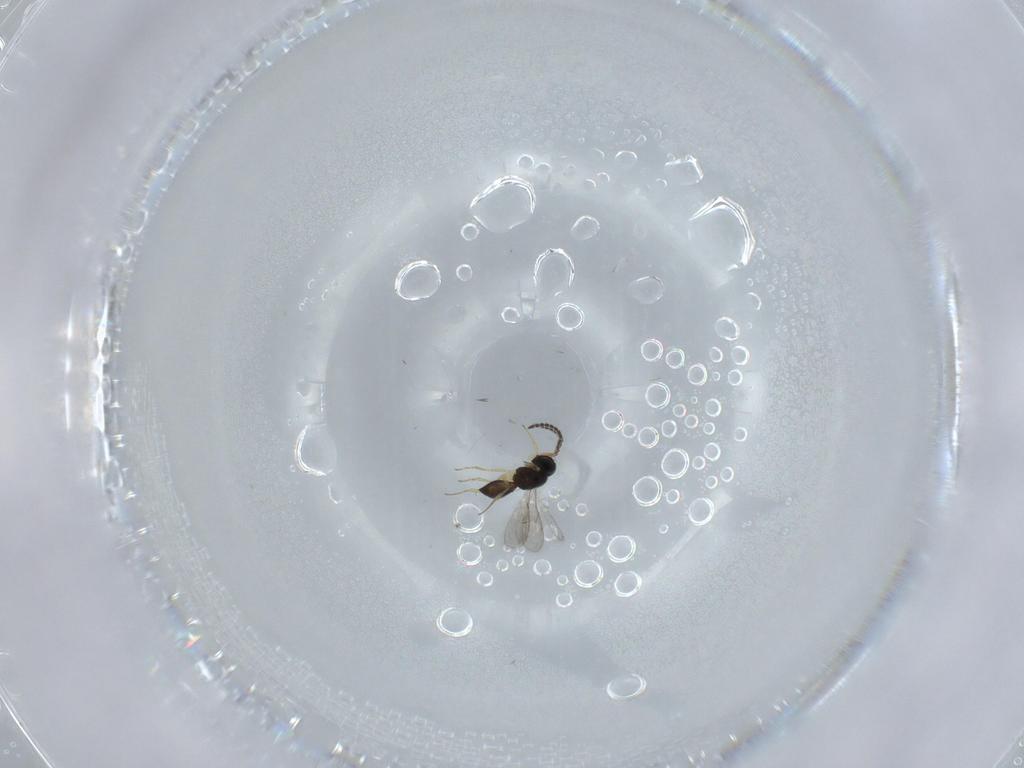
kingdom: Animalia
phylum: Arthropoda
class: Insecta
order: Hymenoptera
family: Scelionidae
